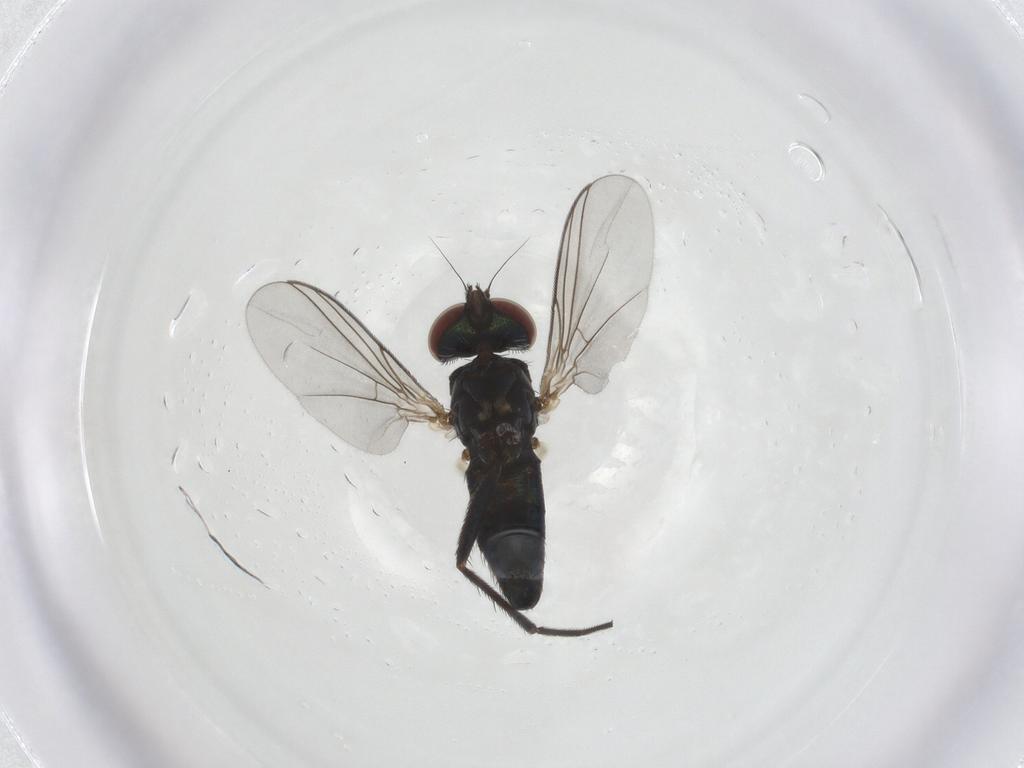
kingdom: Animalia
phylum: Arthropoda
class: Insecta
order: Diptera
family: Dolichopodidae
